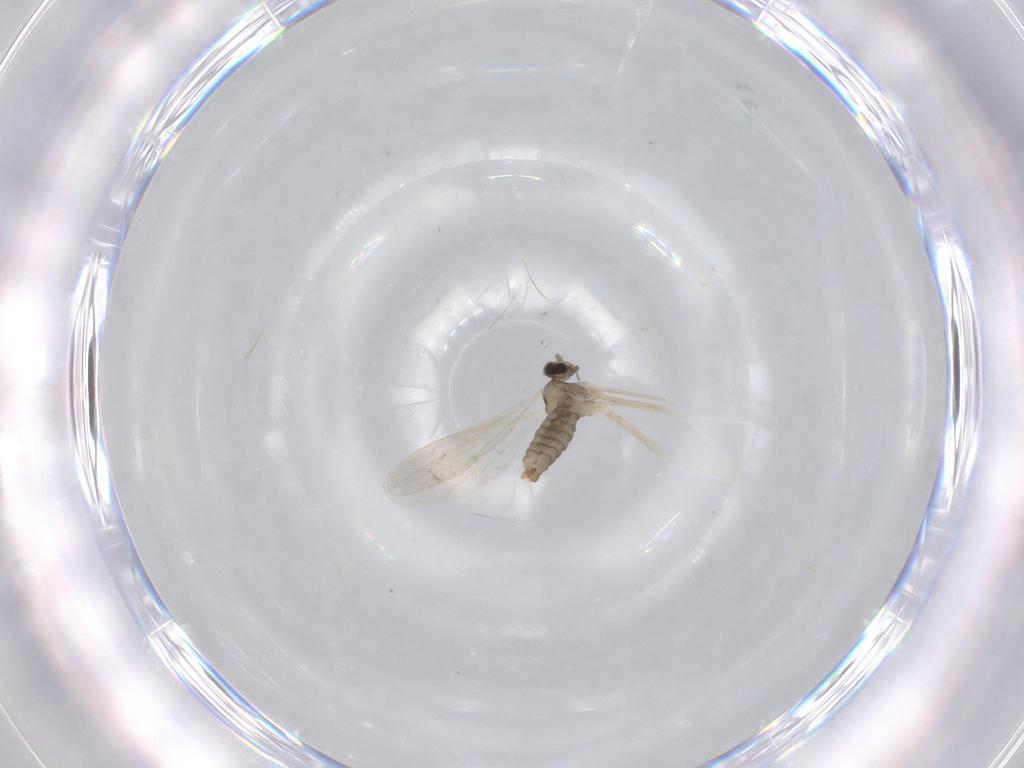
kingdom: Animalia
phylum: Arthropoda
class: Insecta
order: Diptera
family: Cecidomyiidae
